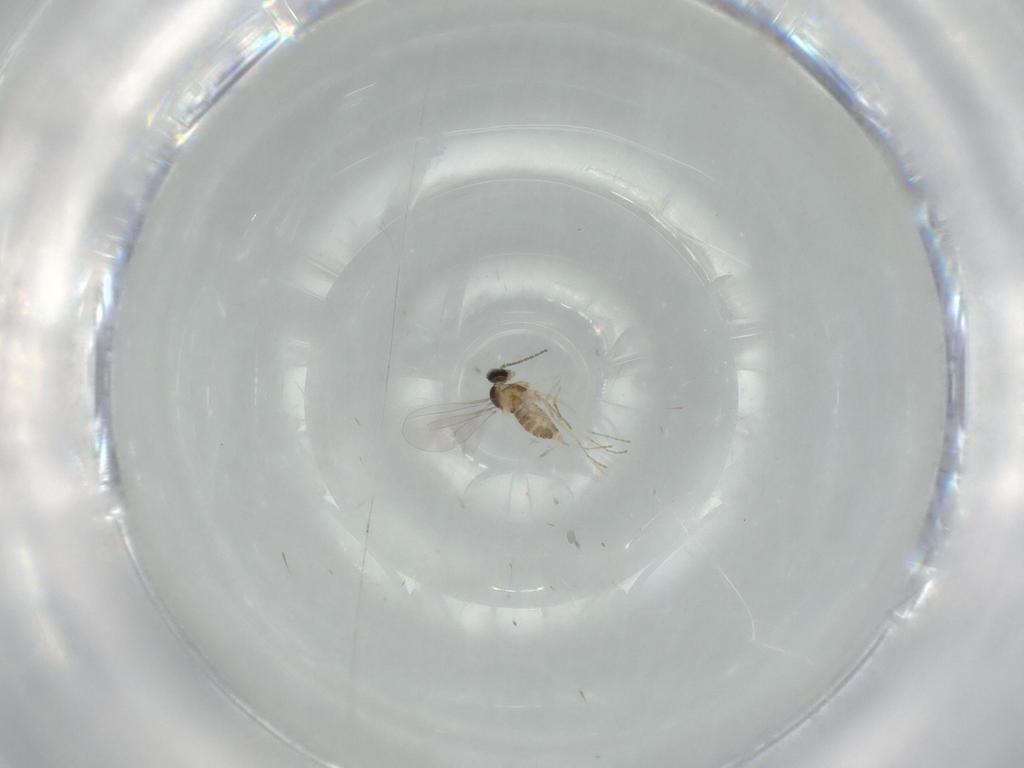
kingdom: Animalia
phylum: Arthropoda
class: Insecta
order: Diptera
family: Cecidomyiidae
